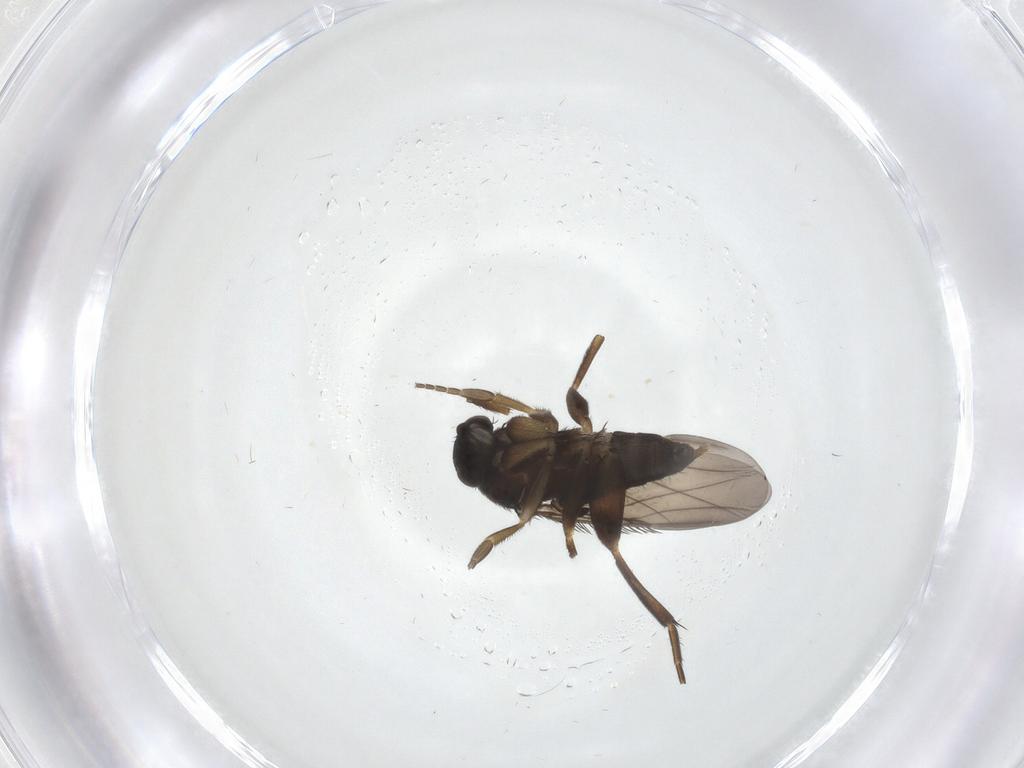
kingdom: Animalia
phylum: Arthropoda
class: Insecta
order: Diptera
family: Phoridae
